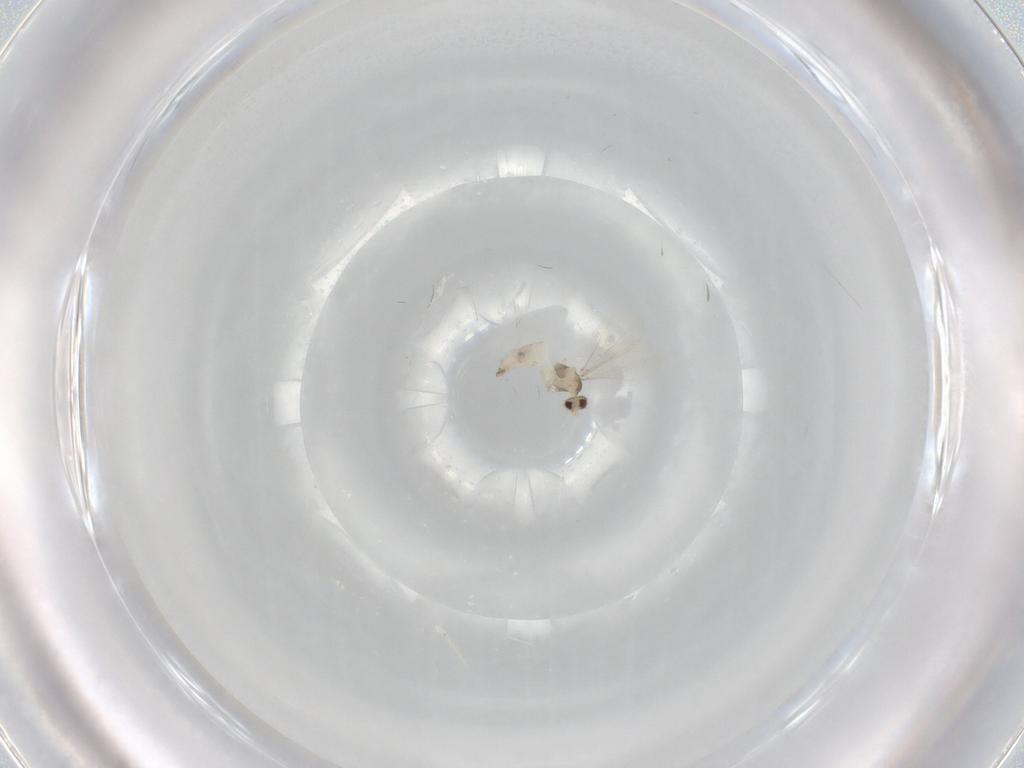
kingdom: Animalia
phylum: Arthropoda
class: Insecta
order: Diptera
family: Cecidomyiidae
